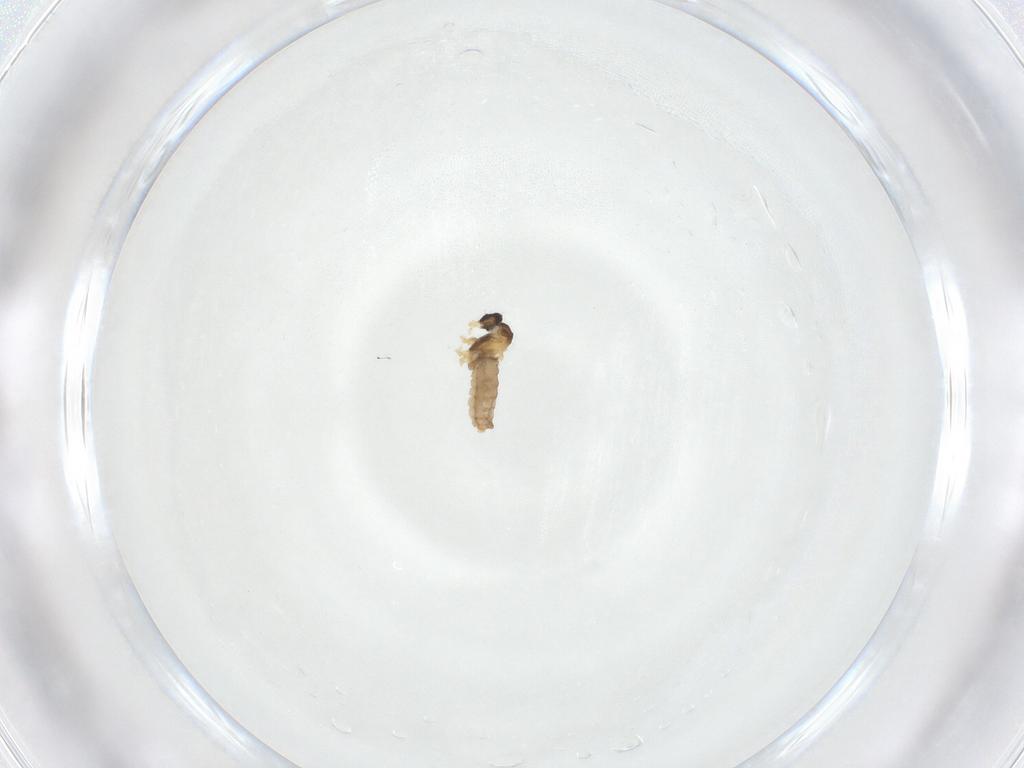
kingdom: Animalia
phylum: Arthropoda
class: Insecta
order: Diptera
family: Cecidomyiidae
